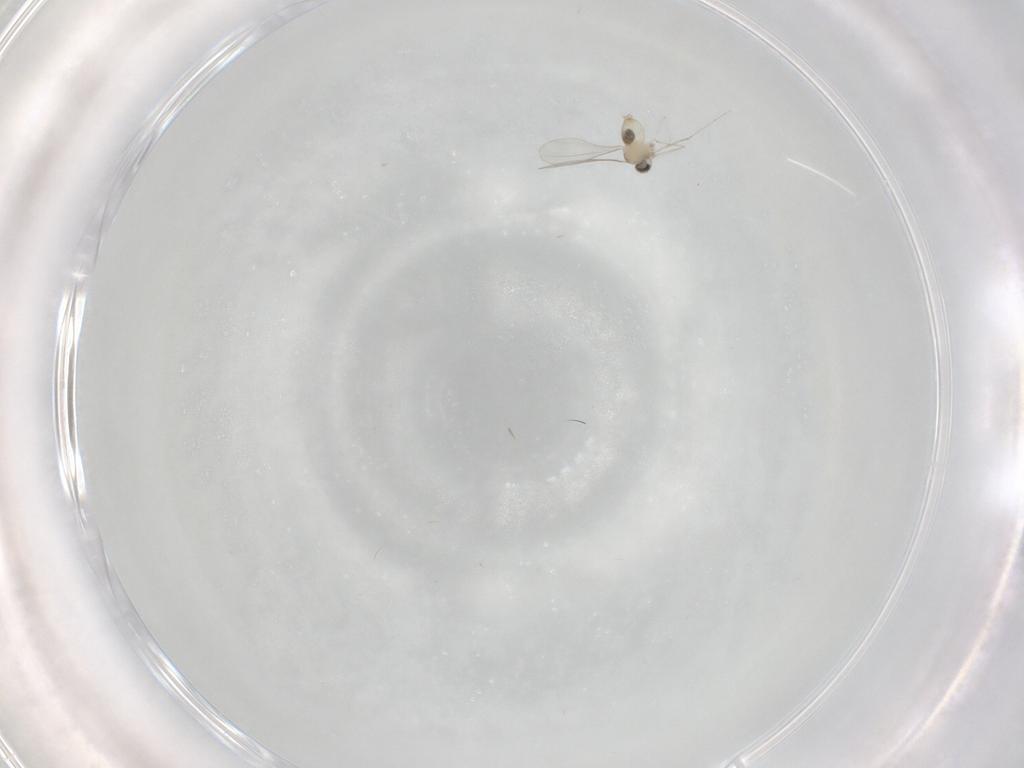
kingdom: Animalia
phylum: Arthropoda
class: Insecta
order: Diptera
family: Cecidomyiidae
